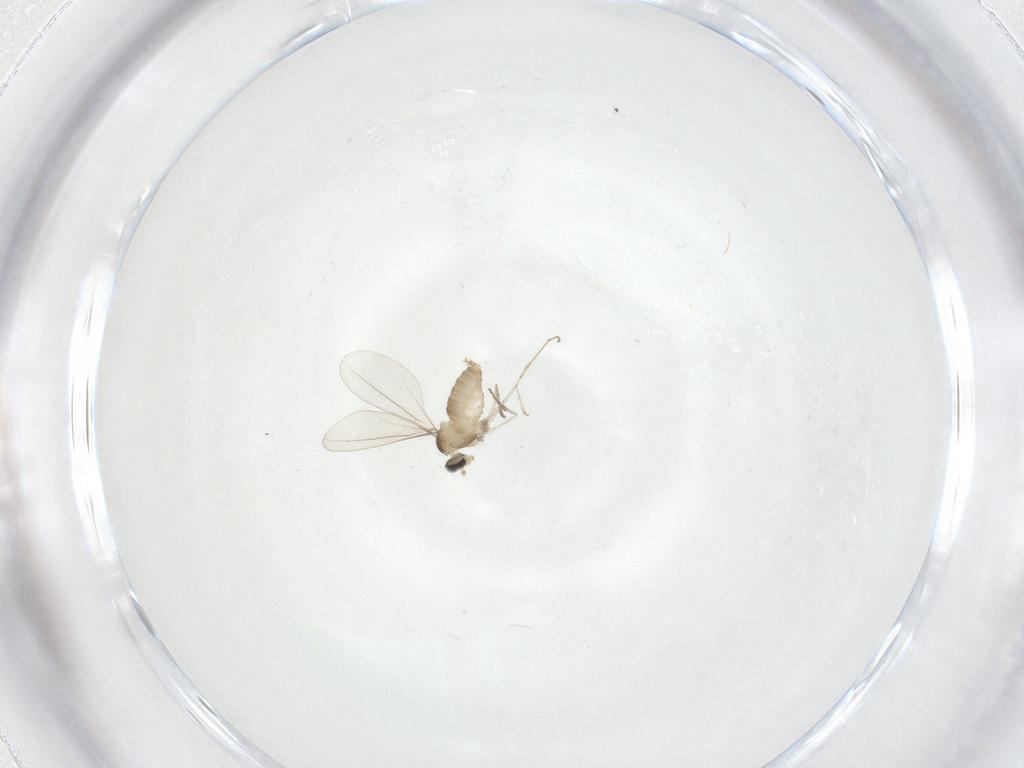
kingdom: Animalia
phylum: Arthropoda
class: Insecta
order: Diptera
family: Cecidomyiidae
